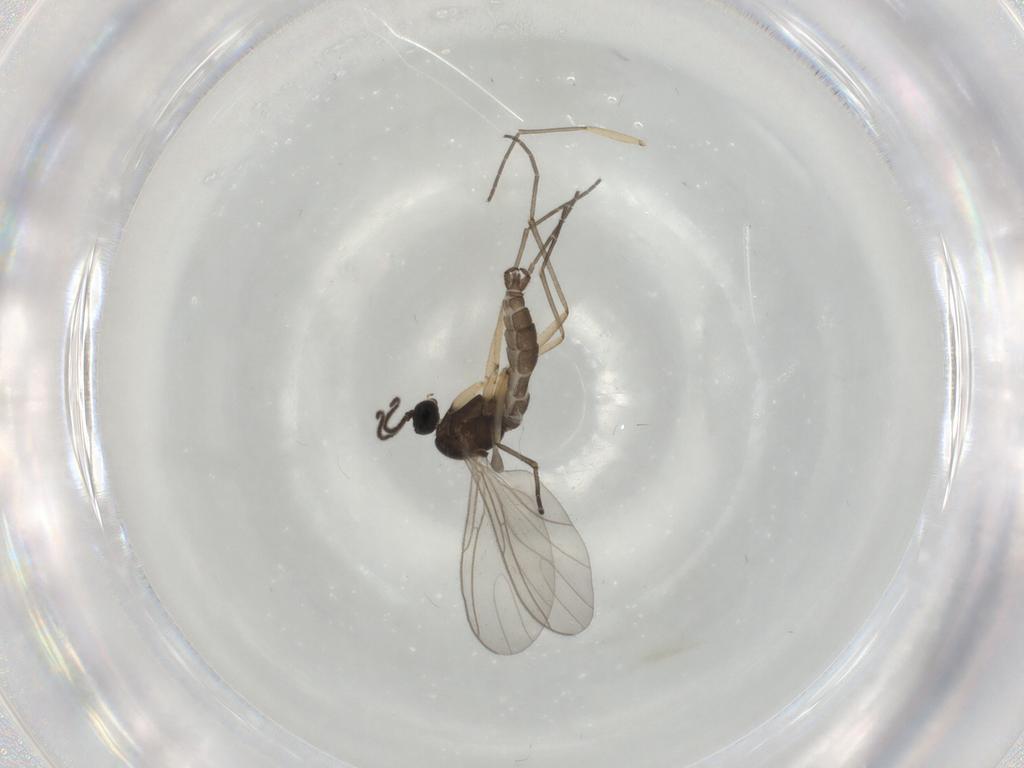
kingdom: Animalia
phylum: Arthropoda
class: Insecta
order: Diptera
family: Sciaridae
